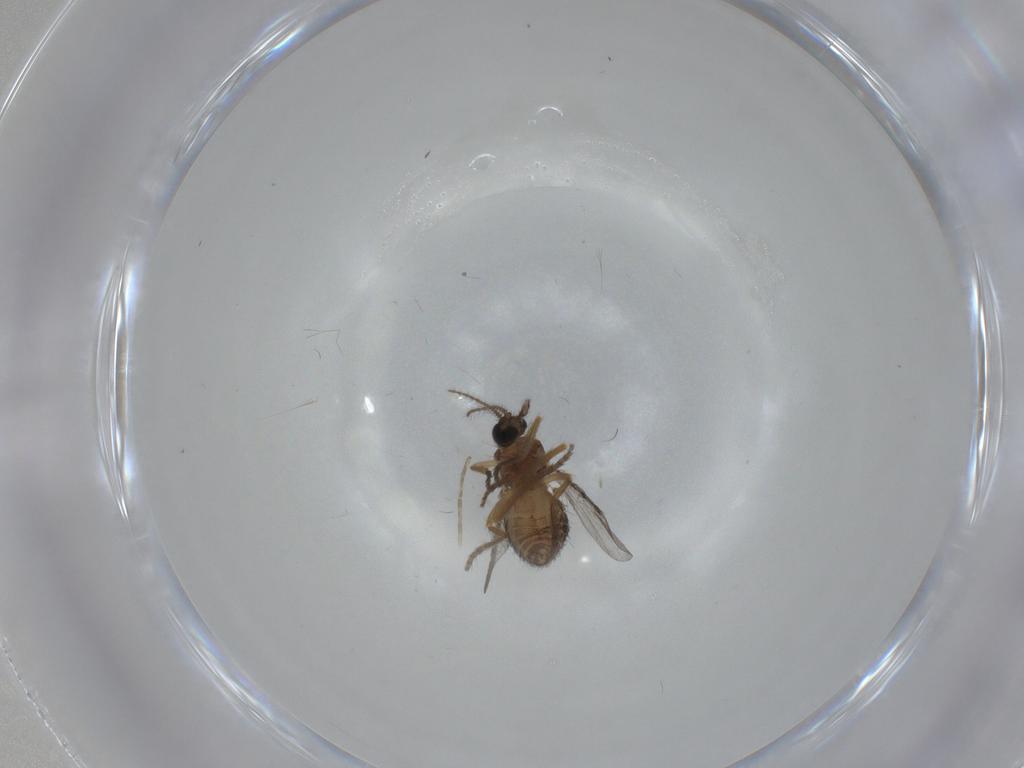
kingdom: Animalia
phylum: Arthropoda
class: Insecta
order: Diptera
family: Ceratopogonidae
